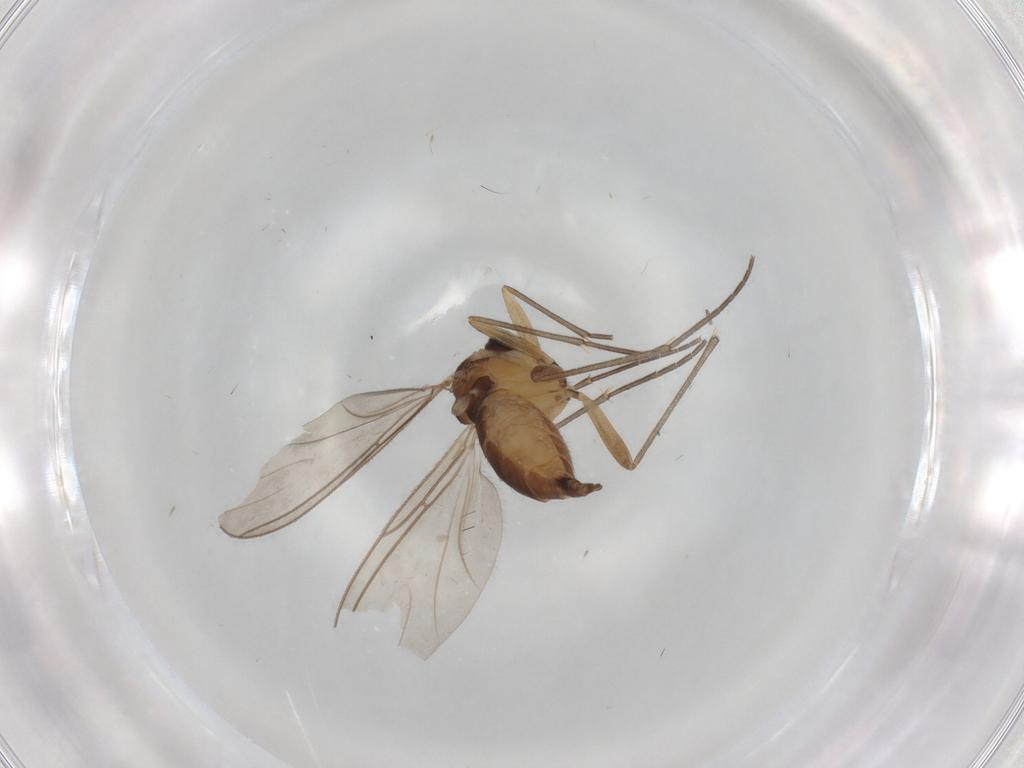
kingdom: Animalia
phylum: Arthropoda
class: Insecta
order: Diptera
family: Sciaridae
